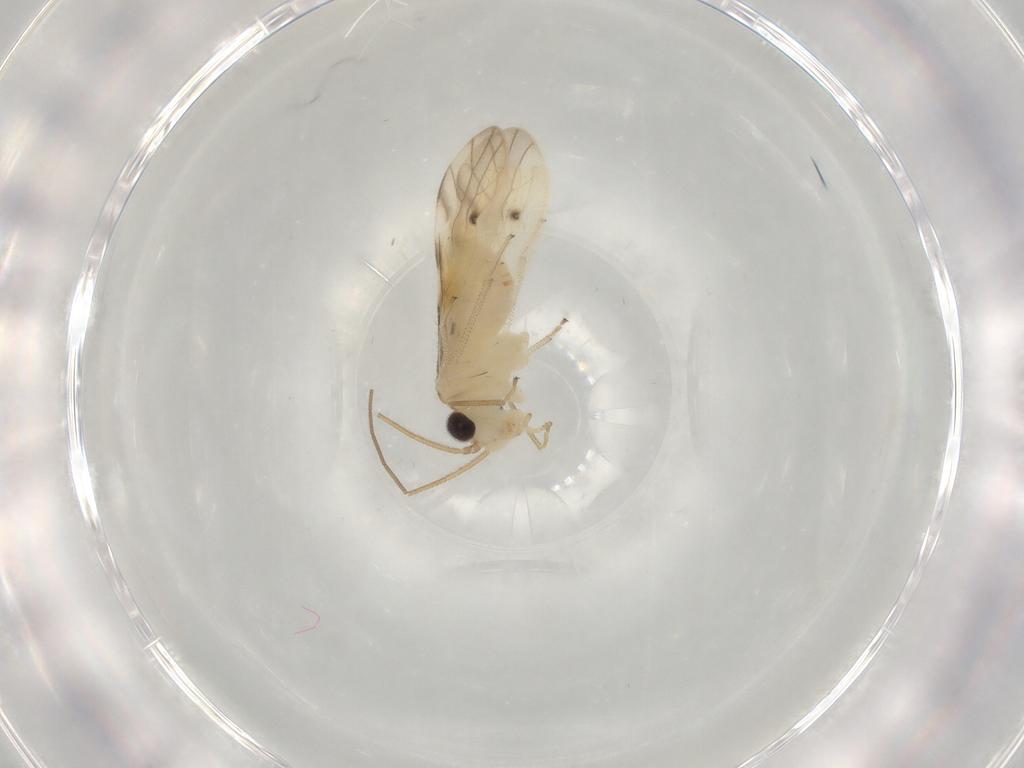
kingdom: Animalia
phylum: Arthropoda
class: Insecta
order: Psocodea
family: Caeciliusidae
